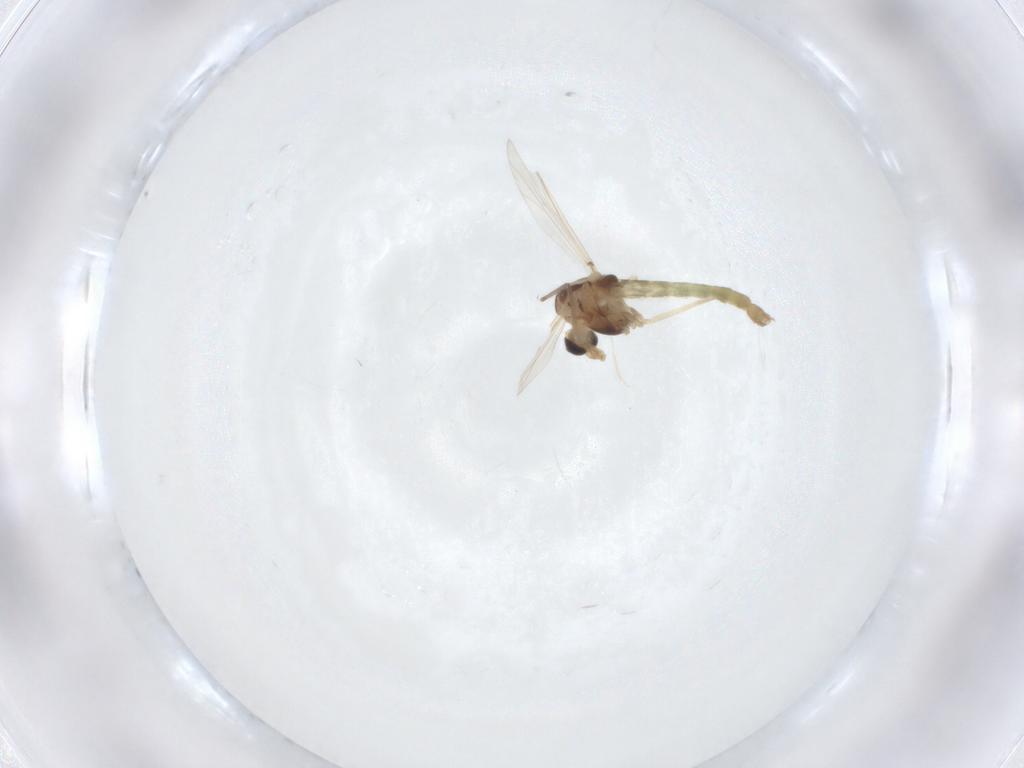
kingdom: Animalia
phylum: Arthropoda
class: Insecta
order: Diptera
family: Chironomidae
